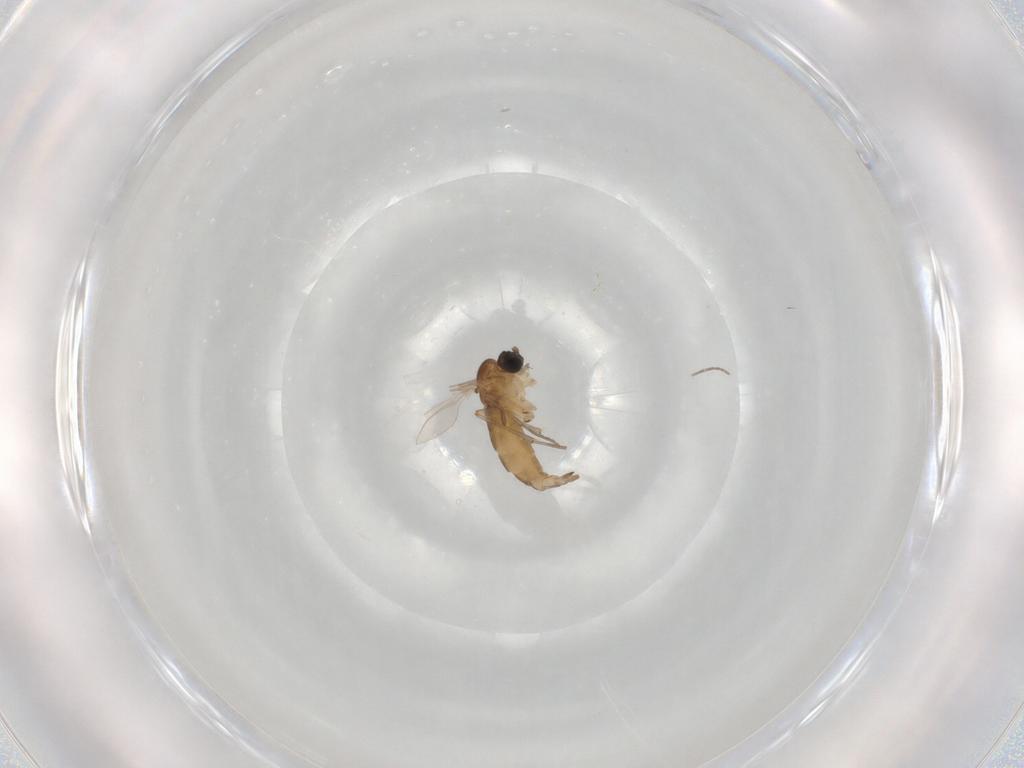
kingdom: Animalia
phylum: Arthropoda
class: Insecta
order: Diptera
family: Sciaridae
